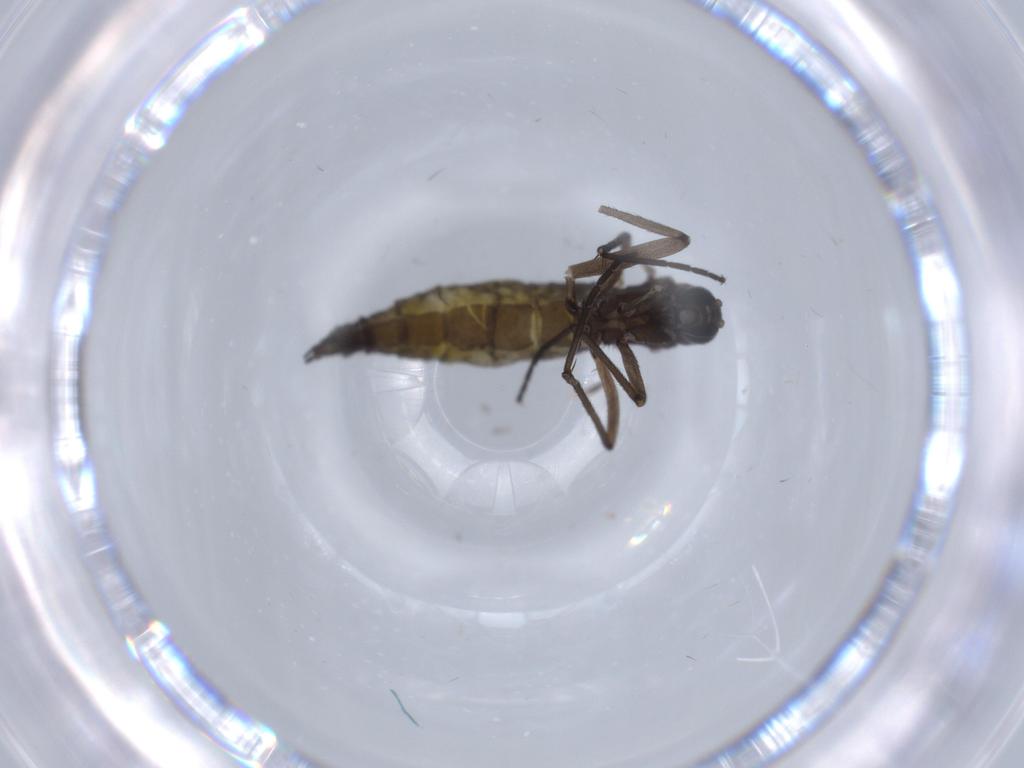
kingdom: Animalia
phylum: Arthropoda
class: Insecta
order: Diptera
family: Sciaridae
